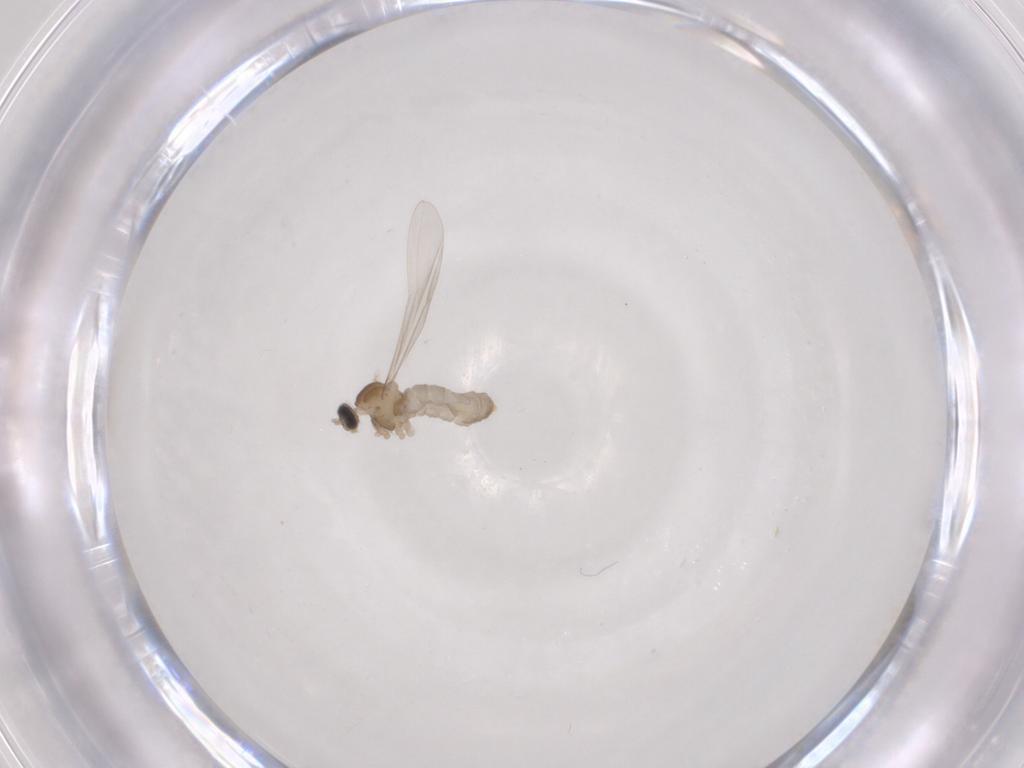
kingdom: Animalia
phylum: Arthropoda
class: Insecta
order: Diptera
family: Cecidomyiidae
